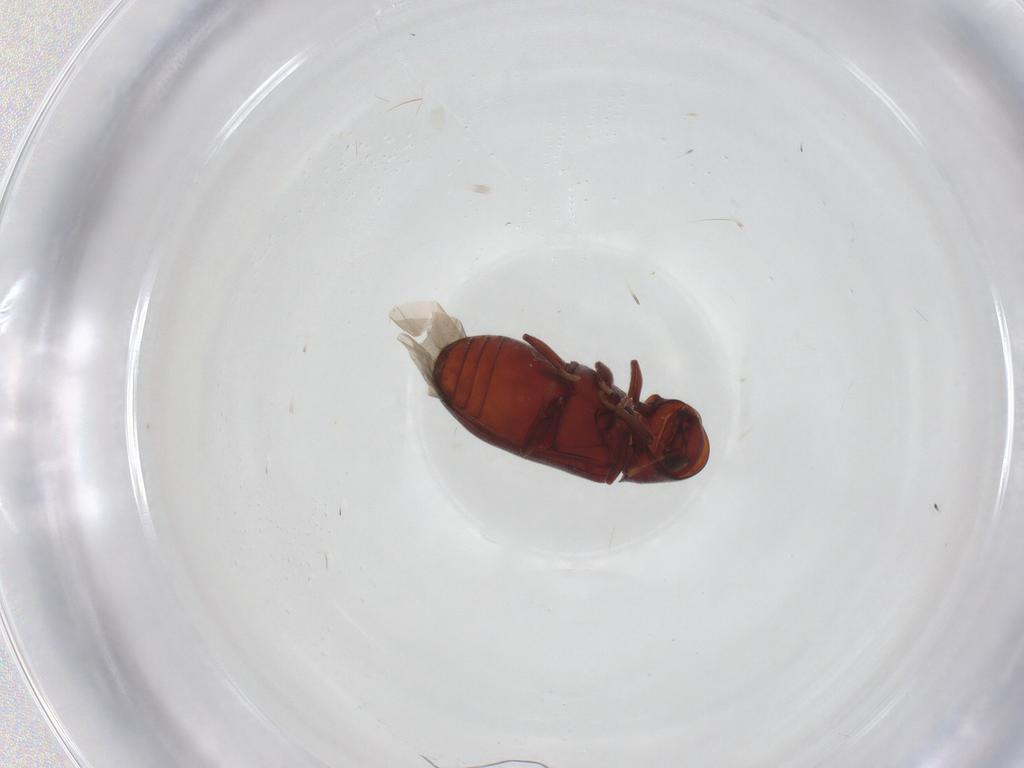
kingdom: Animalia
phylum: Arthropoda
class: Insecta
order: Coleoptera
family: Ptinidae
